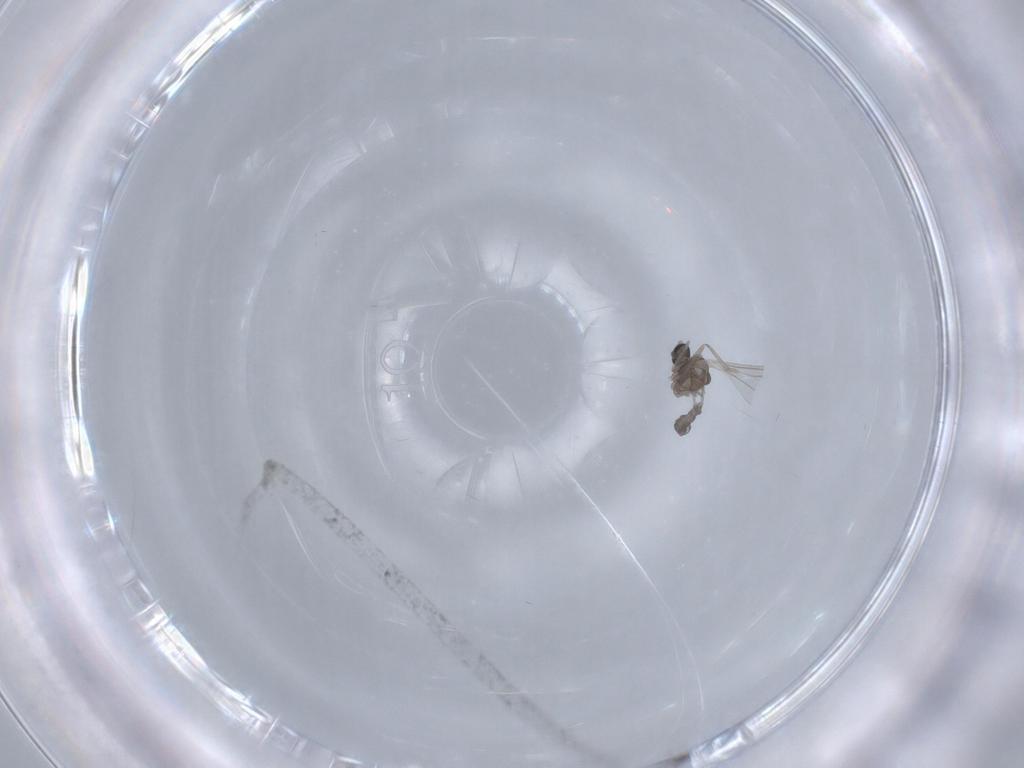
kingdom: Animalia
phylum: Arthropoda
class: Insecta
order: Diptera
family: Cecidomyiidae
